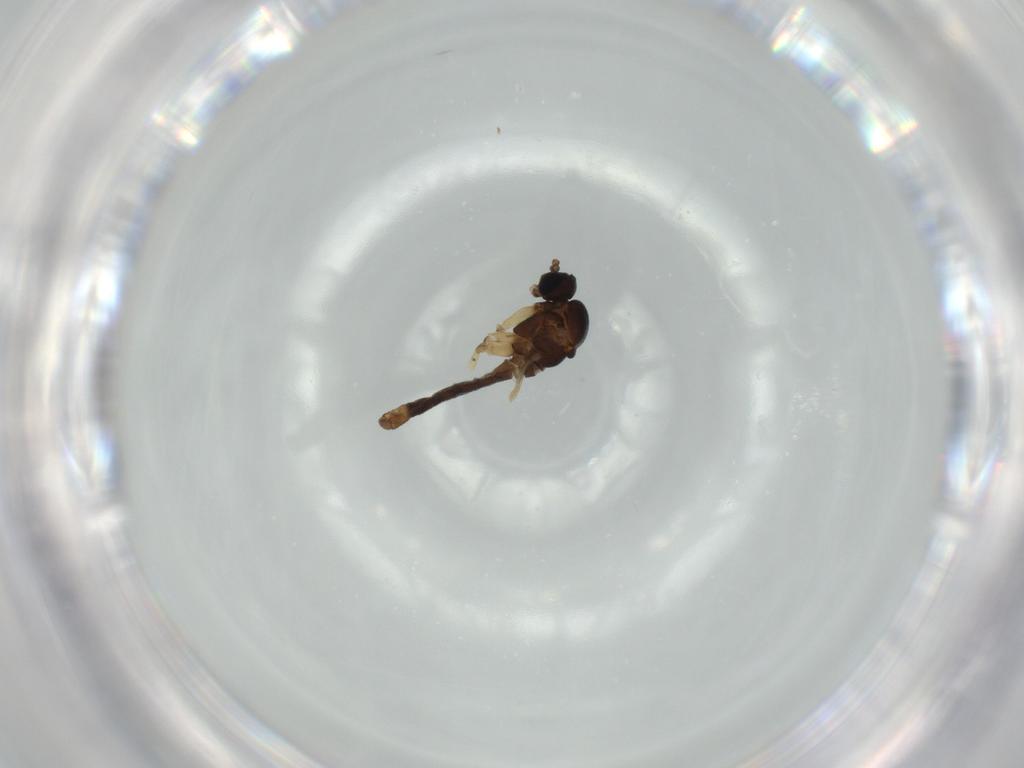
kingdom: Animalia
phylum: Arthropoda
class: Insecta
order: Diptera
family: Sciaridae
